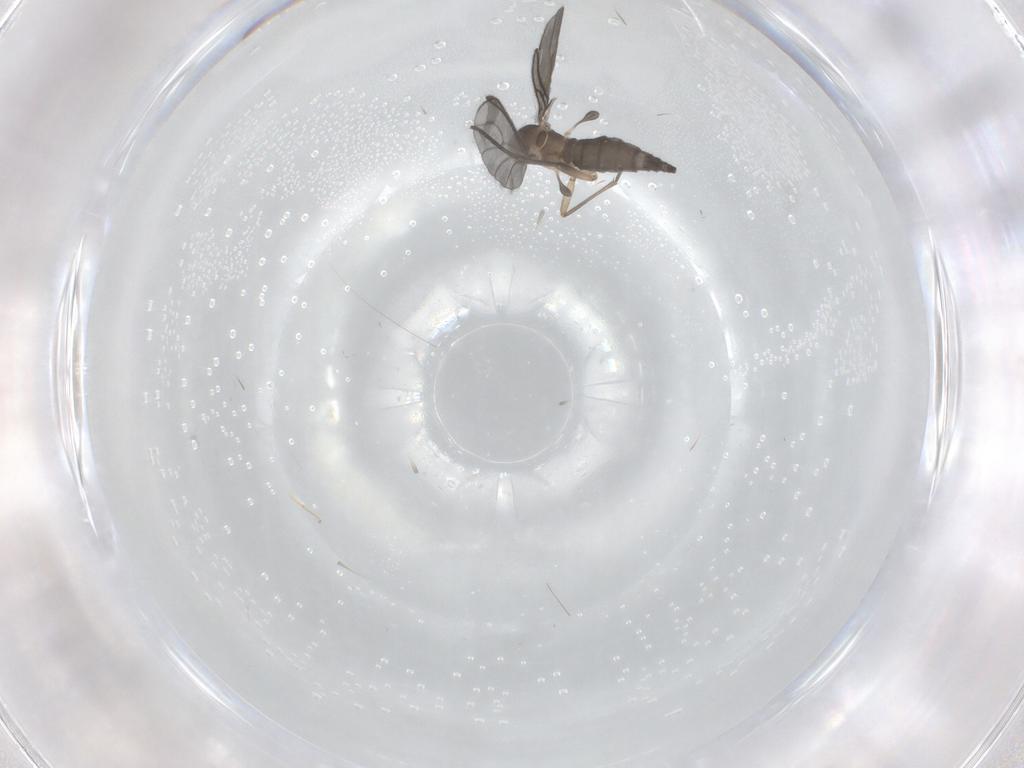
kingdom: Animalia
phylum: Arthropoda
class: Insecta
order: Diptera
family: Sciaridae
